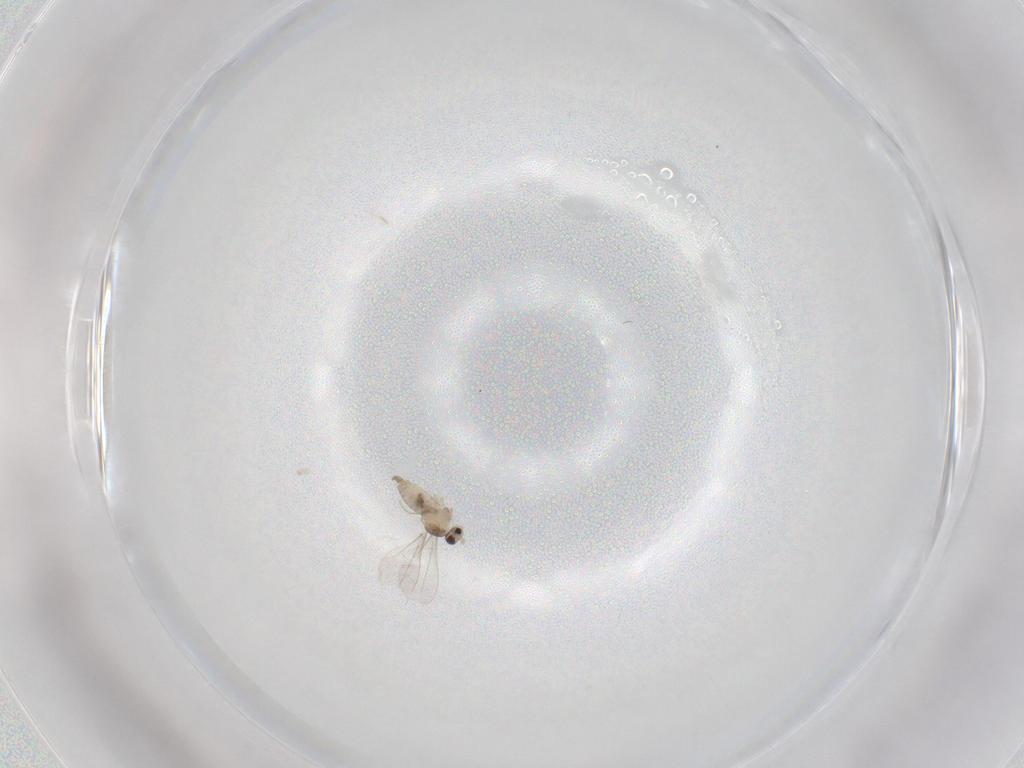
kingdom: Animalia
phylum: Arthropoda
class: Insecta
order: Diptera
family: Cecidomyiidae
